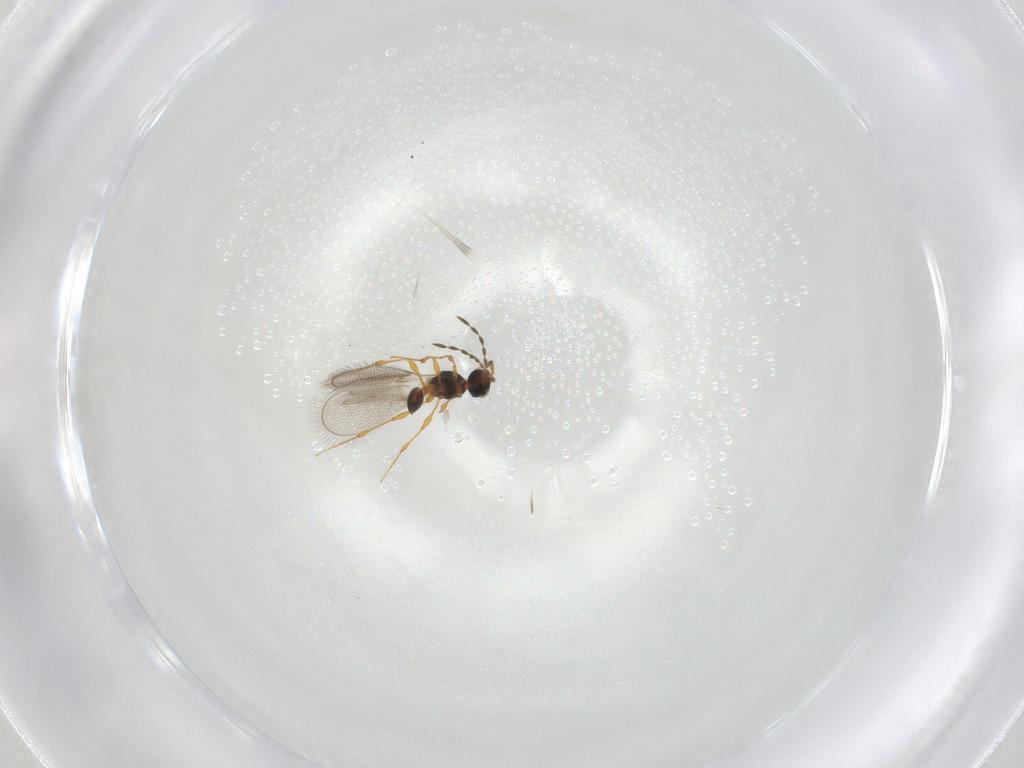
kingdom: Animalia
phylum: Arthropoda
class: Insecta
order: Hymenoptera
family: Platygastridae
